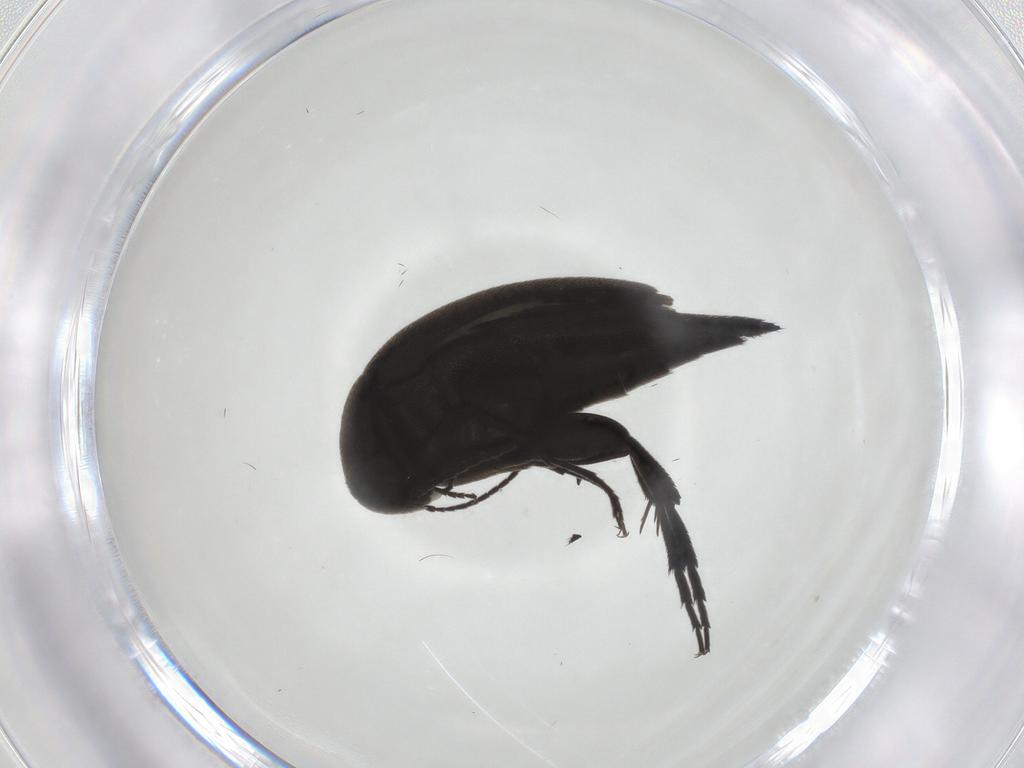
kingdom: Animalia
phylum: Arthropoda
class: Insecta
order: Coleoptera
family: Mordellidae
